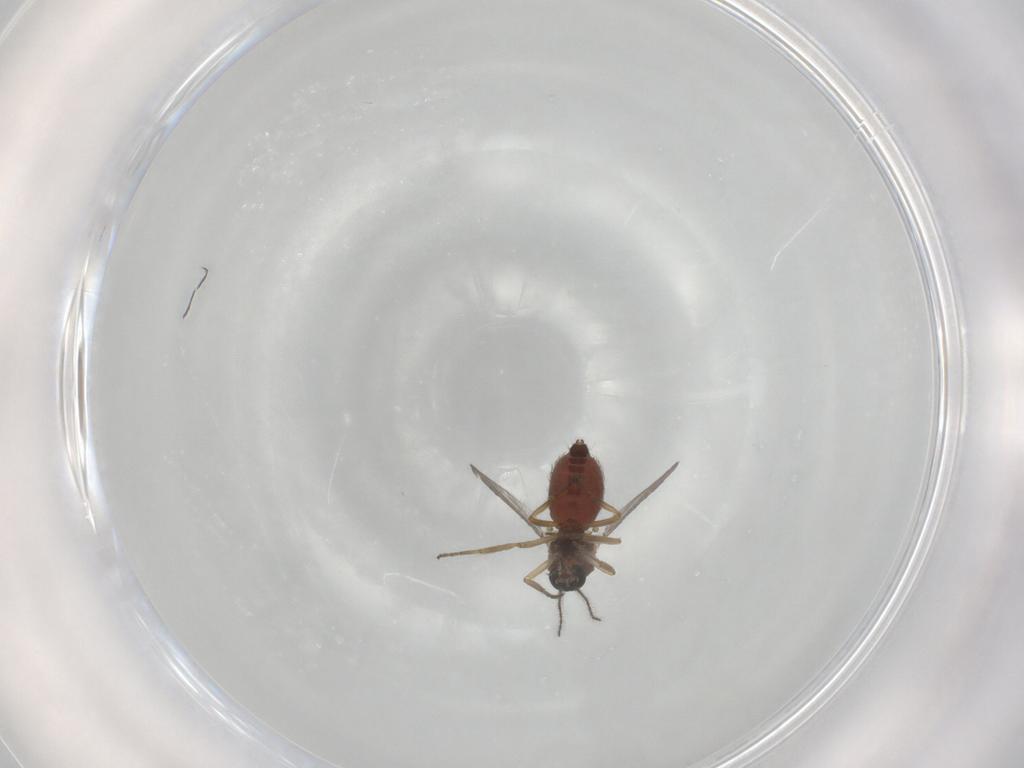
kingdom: Animalia
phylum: Arthropoda
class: Insecta
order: Diptera
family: Ceratopogonidae
